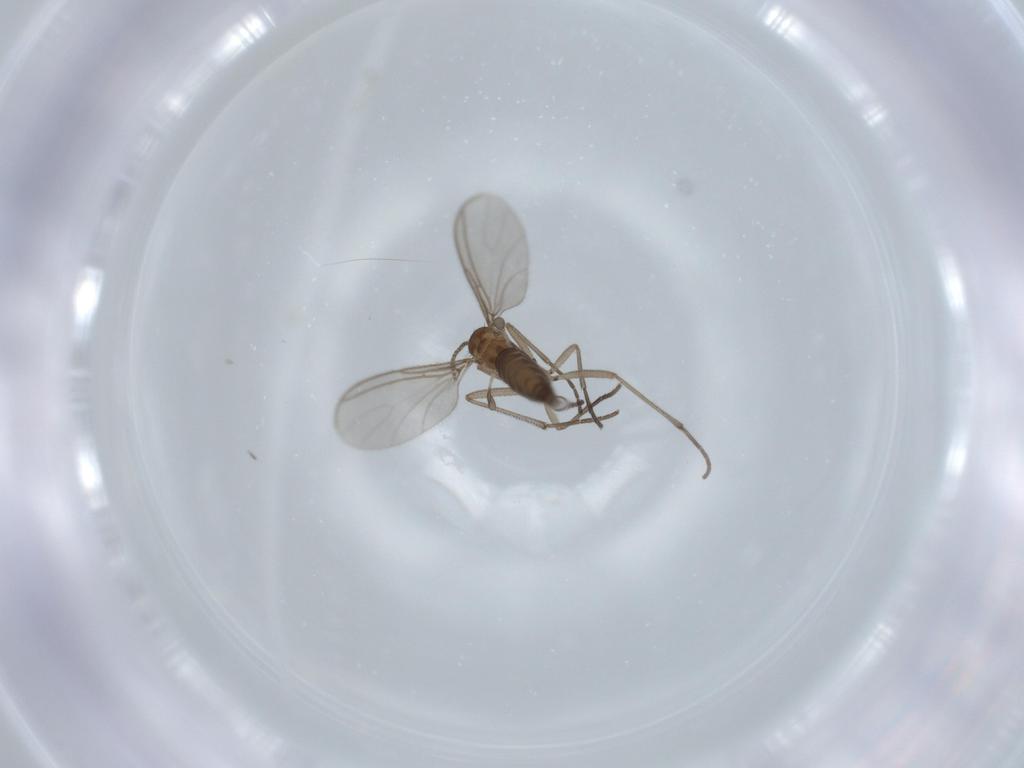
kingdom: Animalia
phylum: Arthropoda
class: Insecta
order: Diptera
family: Sciaridae
